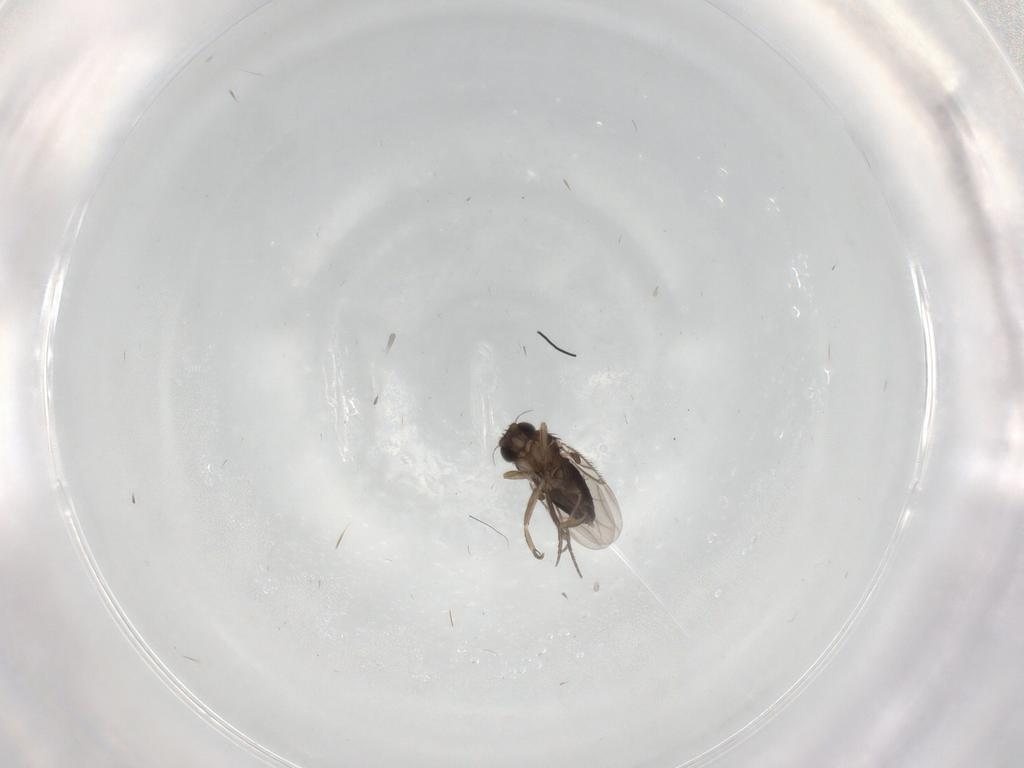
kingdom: Animalia
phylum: Arthropoda
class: Insecta
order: Diptera
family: Phoridae
